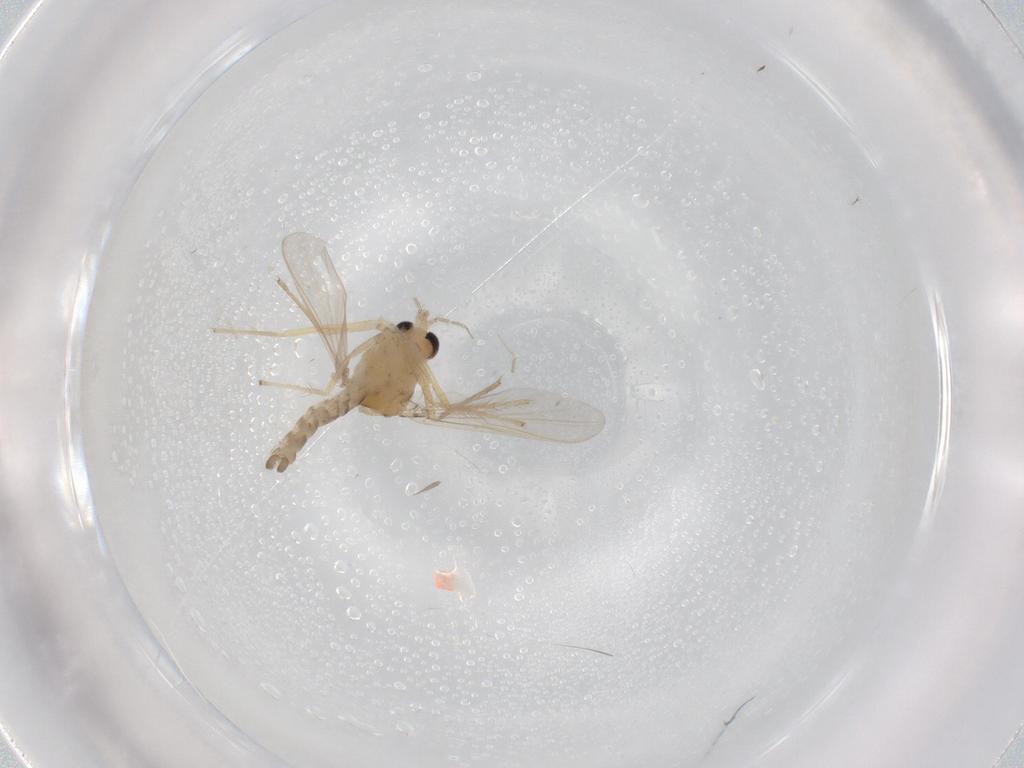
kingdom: Animalia
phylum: Arthropoda
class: Insecta
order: Diptera
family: Chironomidae
